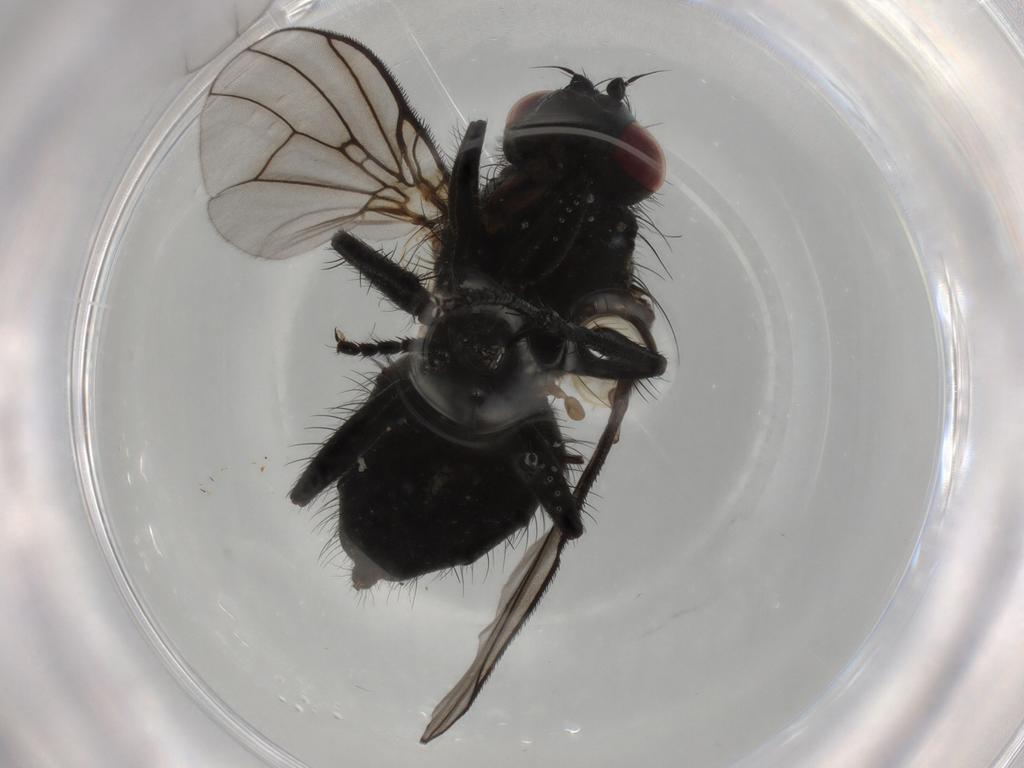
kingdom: Animalia
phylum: Arthropoda
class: Insecta
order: Diptera
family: Muscidae
